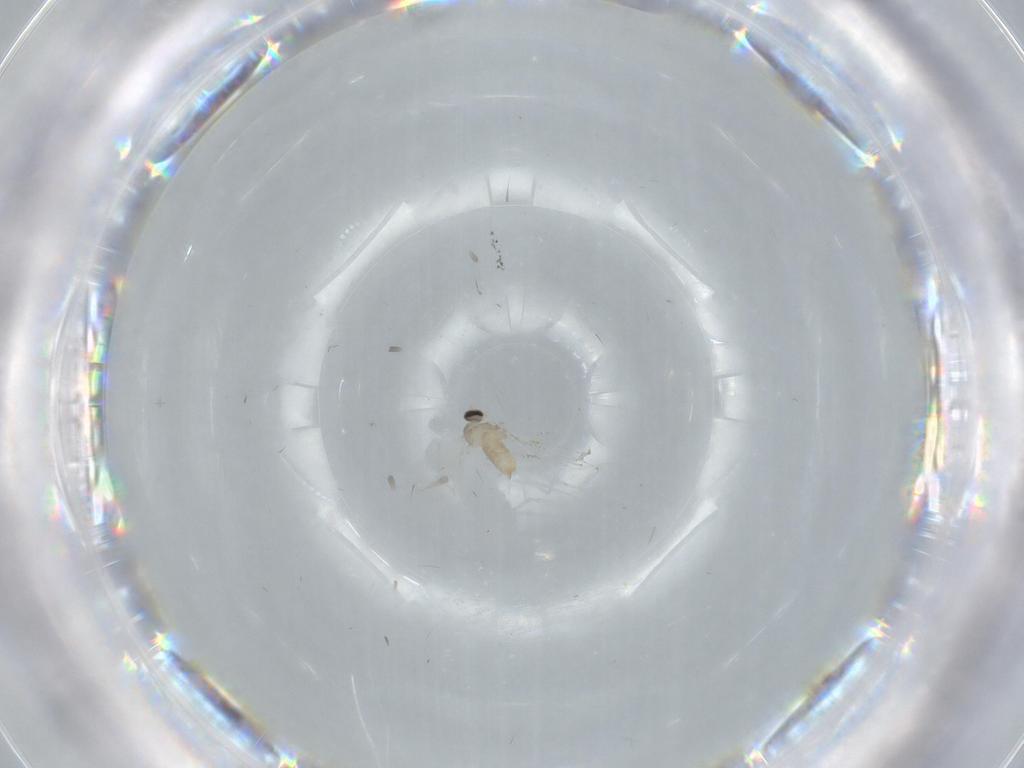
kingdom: Animalia
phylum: Arthropoda
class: Insecta
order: Diptera
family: Cecidomyiidae
